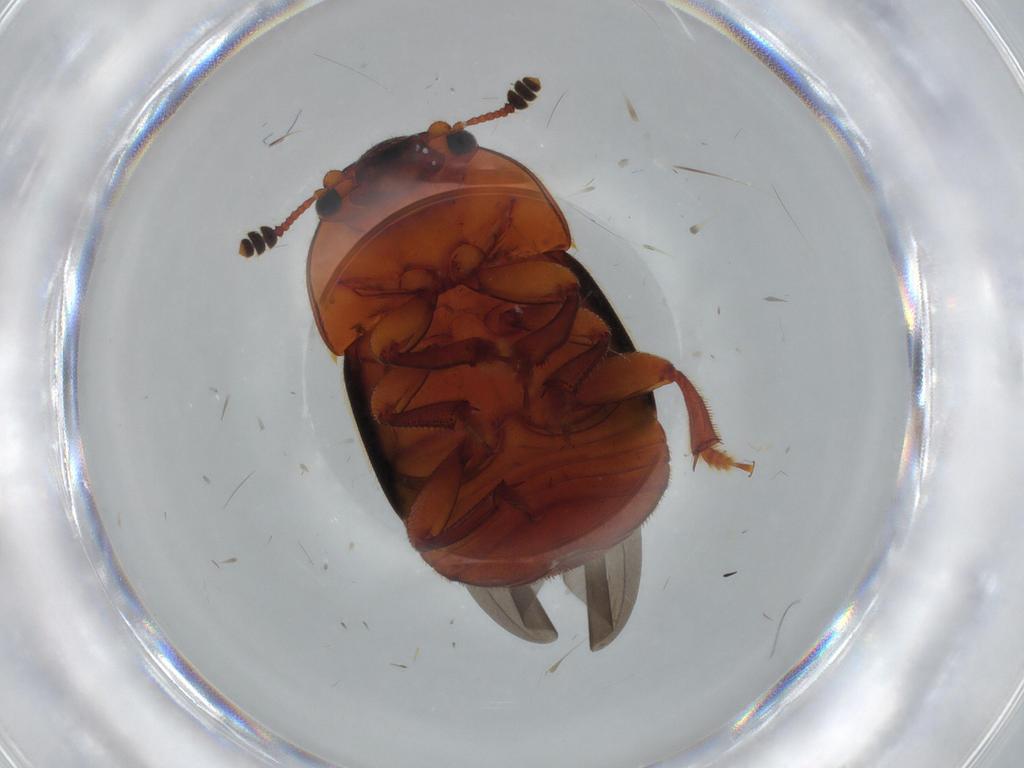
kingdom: Animalia
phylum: Arthropoda
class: Insecta
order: Coleoptera
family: Nitidulidae
